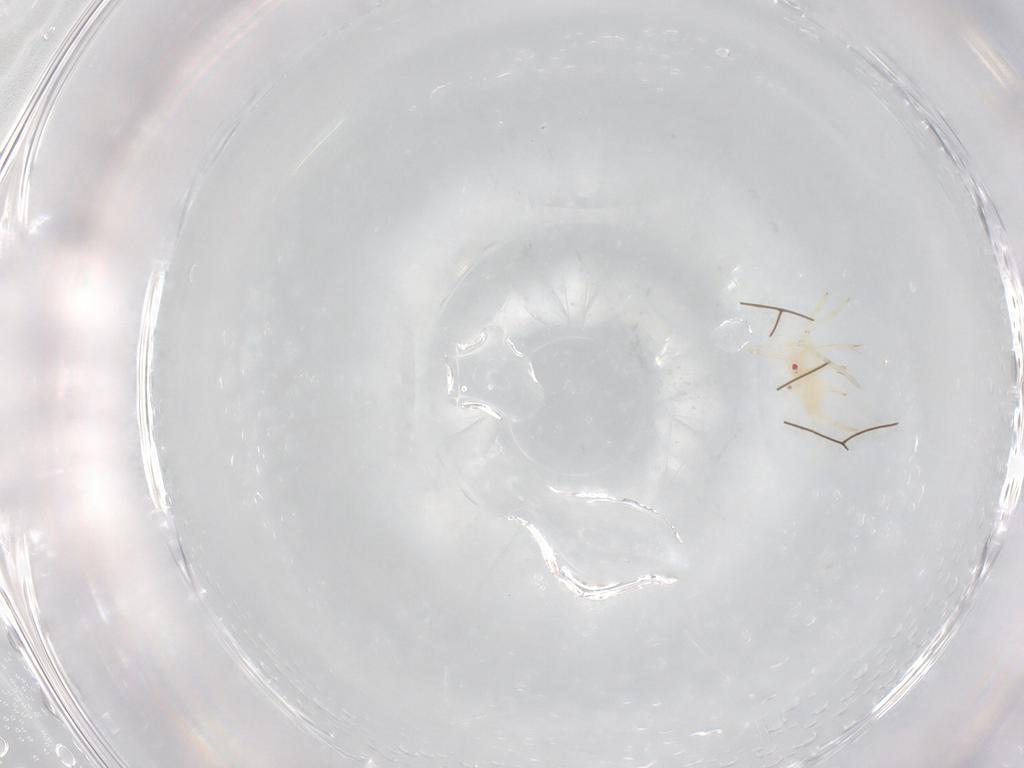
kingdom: Animalia
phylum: Arthropoda
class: Insecta
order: Hemiptera
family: Miridae
